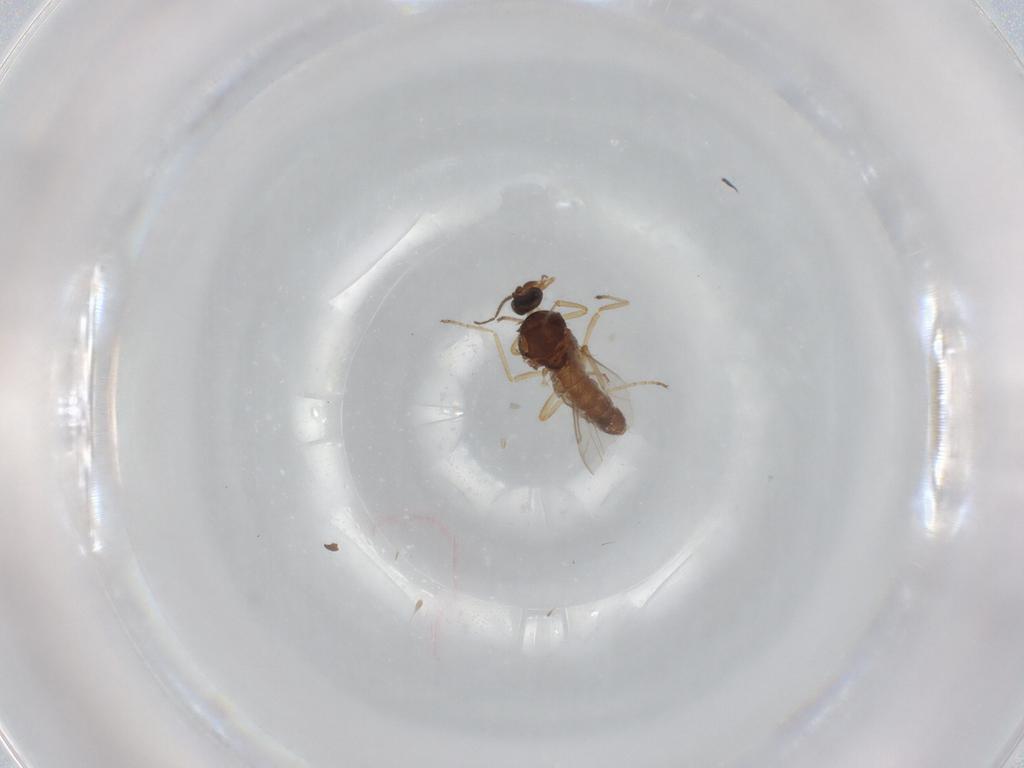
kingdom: Animalia
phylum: Arthropoda
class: Insecta
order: Diptera
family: Ceratopogonidae
